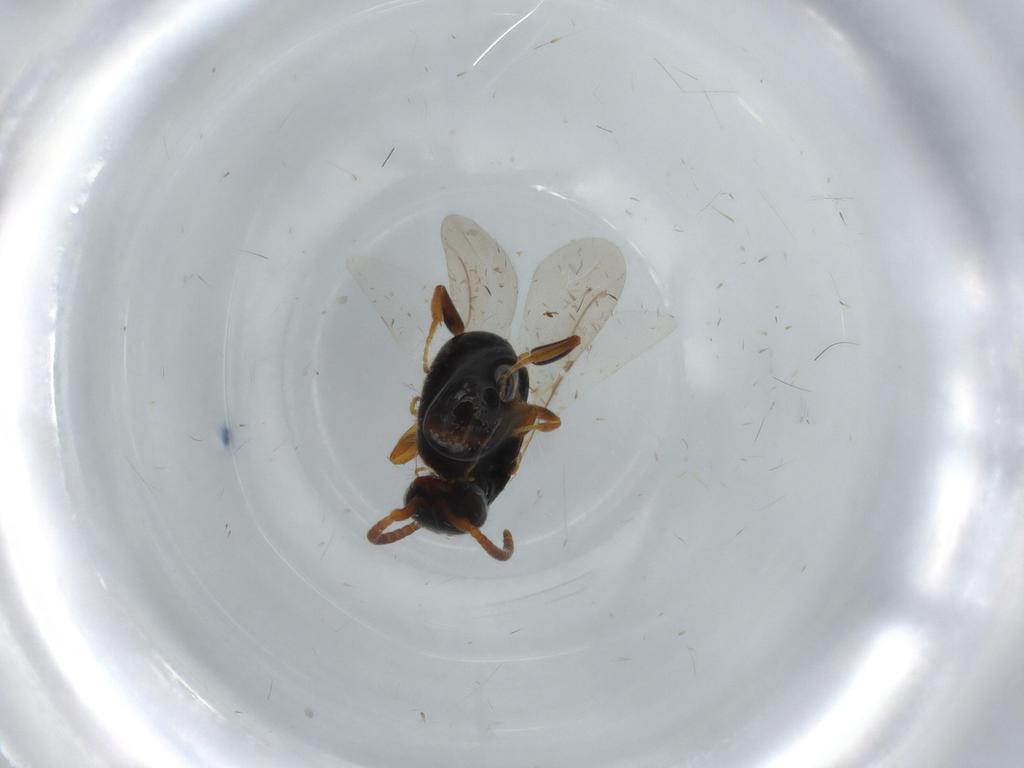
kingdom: Animalia
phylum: Arthropoda
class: Insecta
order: Hymenoptera
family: Bethylidae
